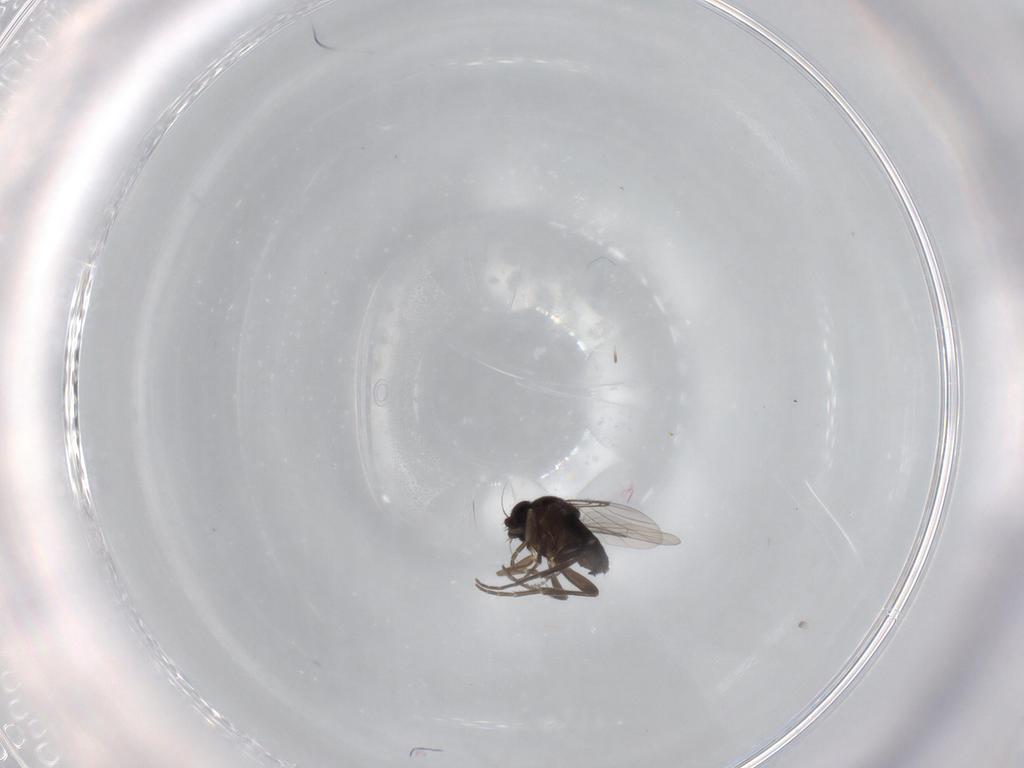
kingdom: Animalia
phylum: Arthropoda
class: Insecta
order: Diptera
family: Phoridae
